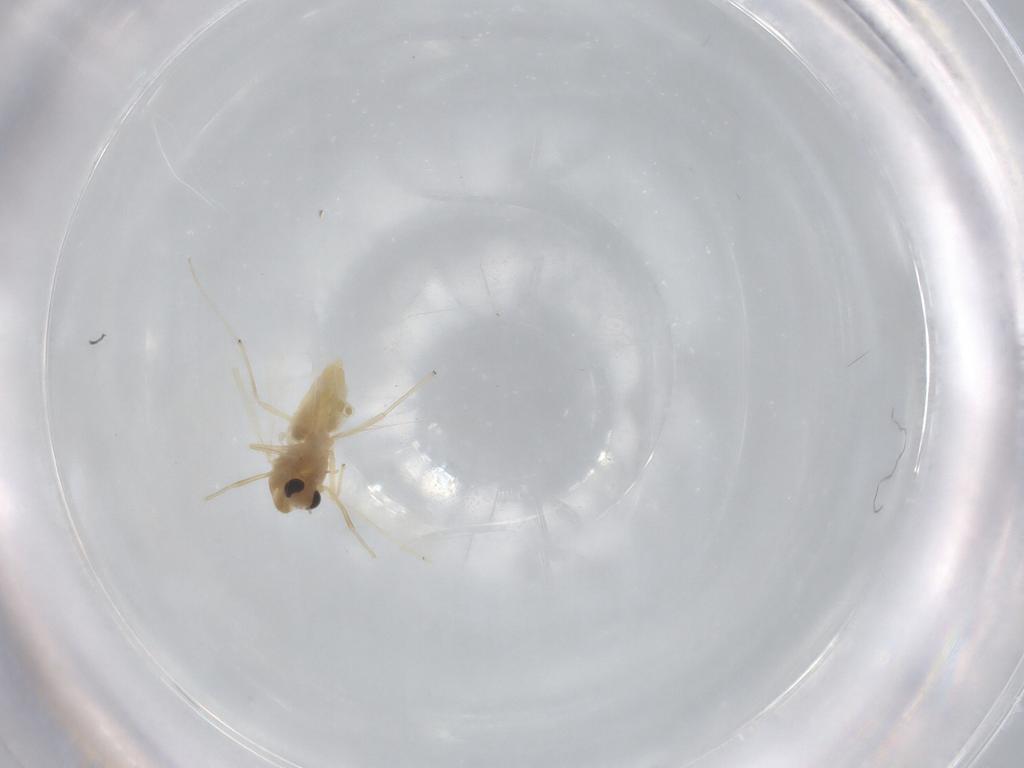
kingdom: Animalia
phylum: Arthropoda
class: Insecta
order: Diptera
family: Chironomidae
